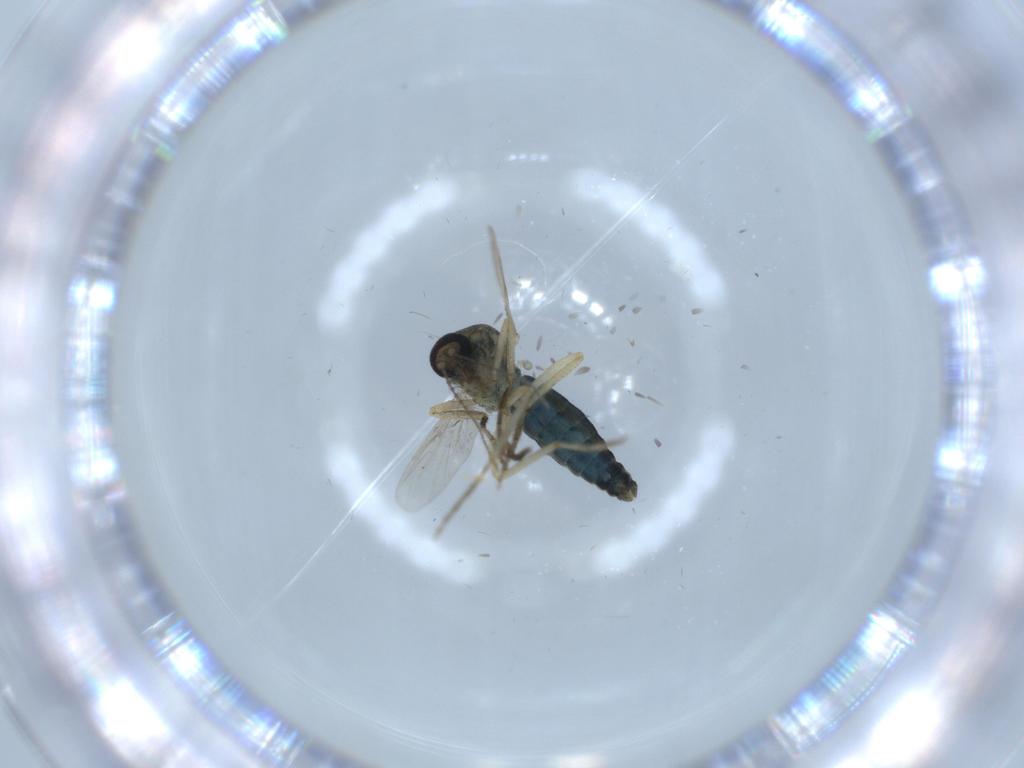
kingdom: Animalia
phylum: Arthropoda
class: Insecta
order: Diptera
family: Ceratopogonidae
